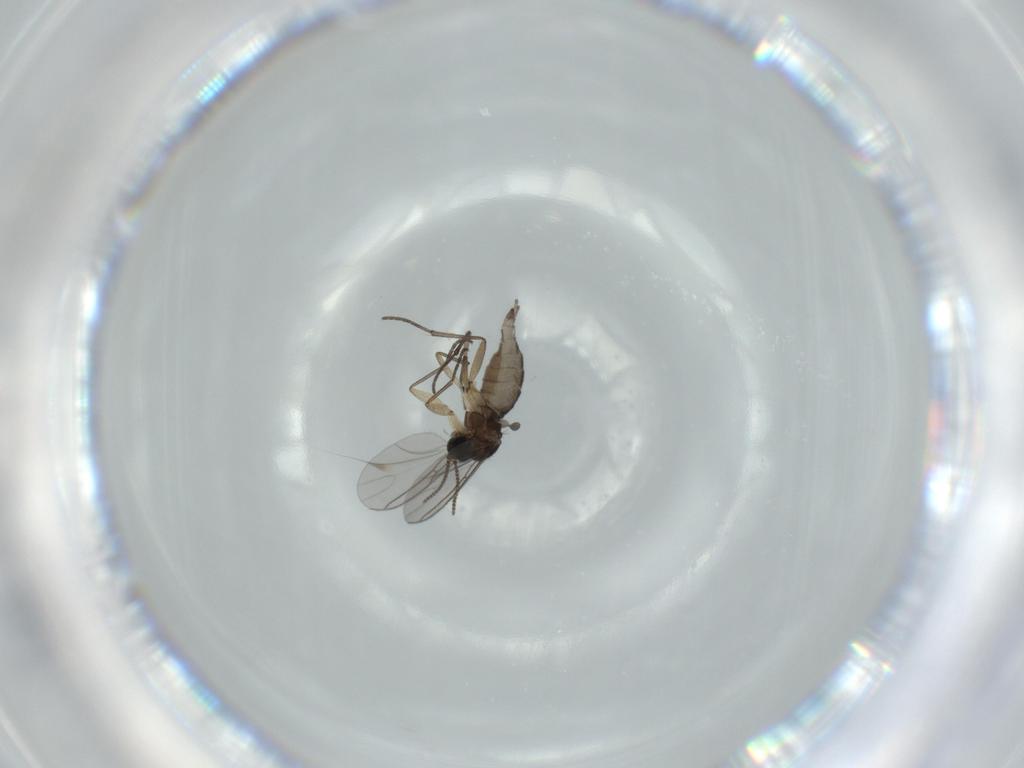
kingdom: Animalia
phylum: Arthropoda
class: Insecta
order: Diptera
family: Sciaridae
